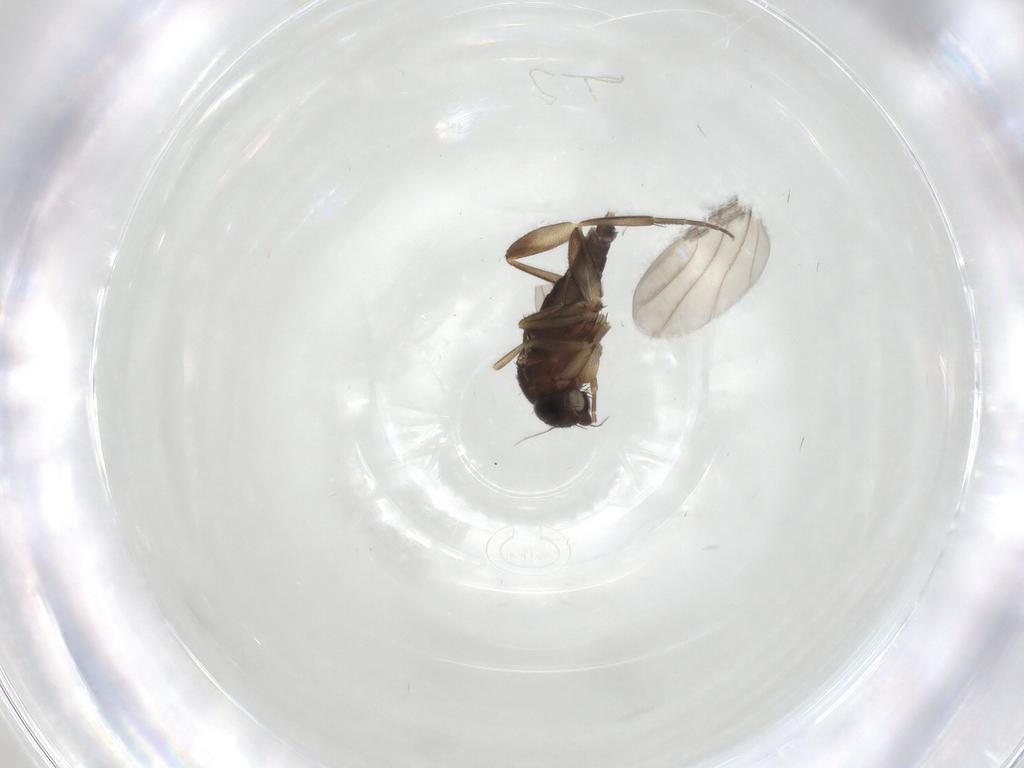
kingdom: Animalia
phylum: Arthropoda
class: Insecta
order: Diptera
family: Phoridae
